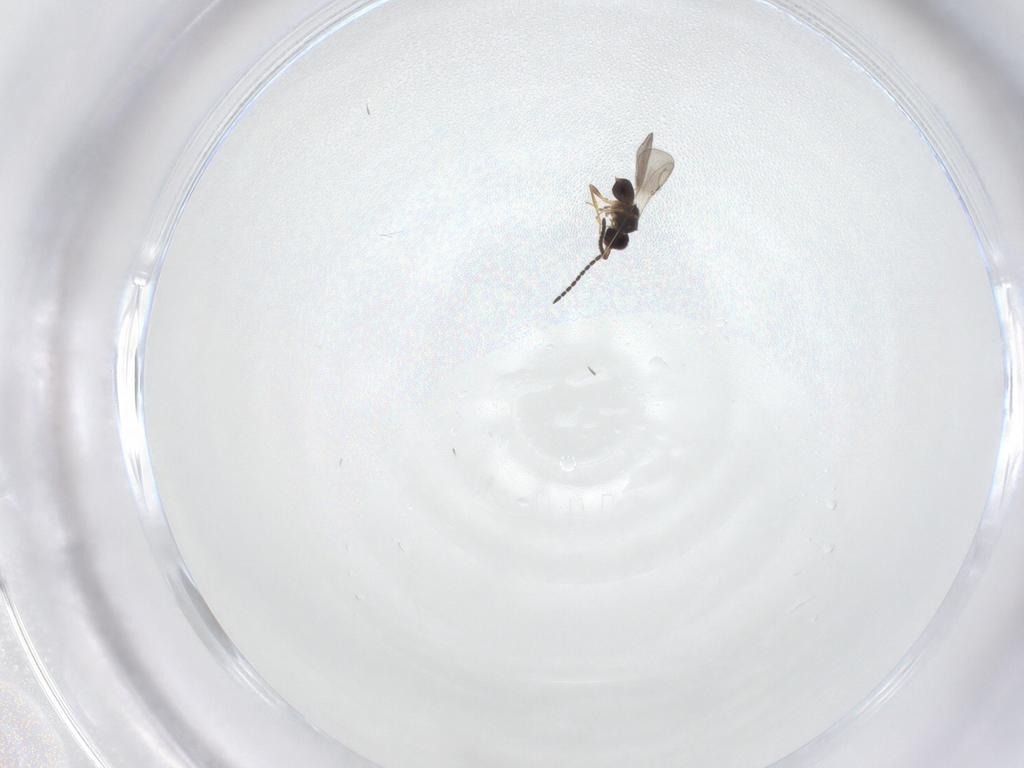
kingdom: Animalia
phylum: Arthropoda
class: Insecta
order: Hymenoptera
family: Ceraphronidae
